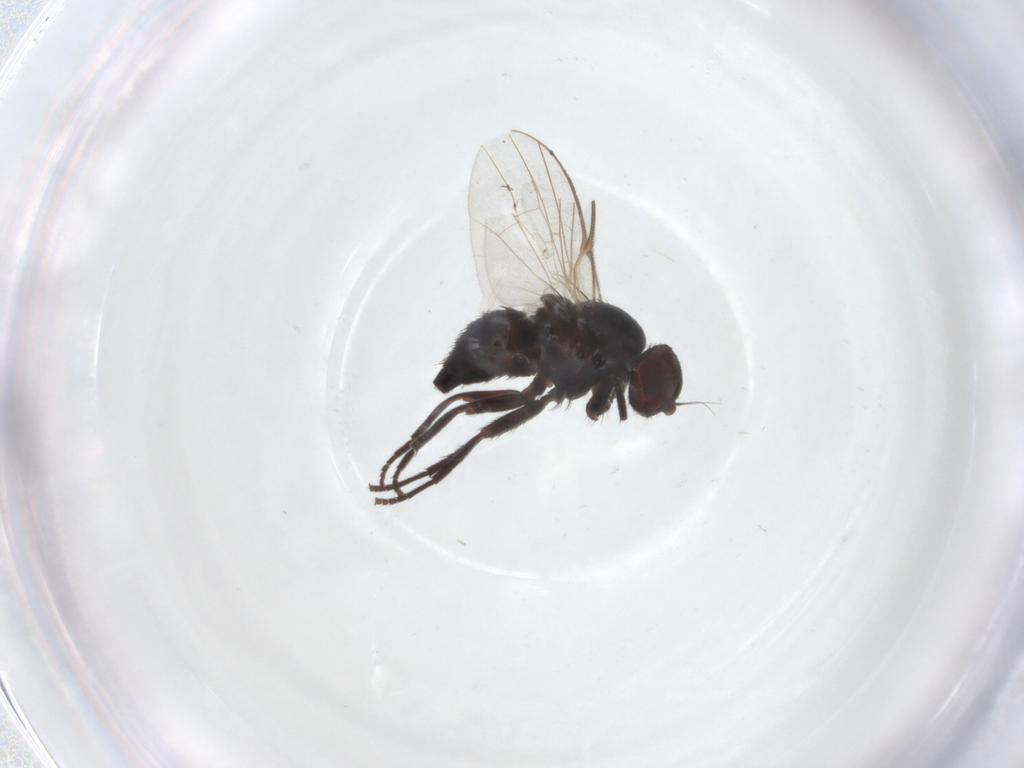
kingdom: Animalia
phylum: Arthropoda
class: Insecta
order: Diptera
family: Agromyzidae
